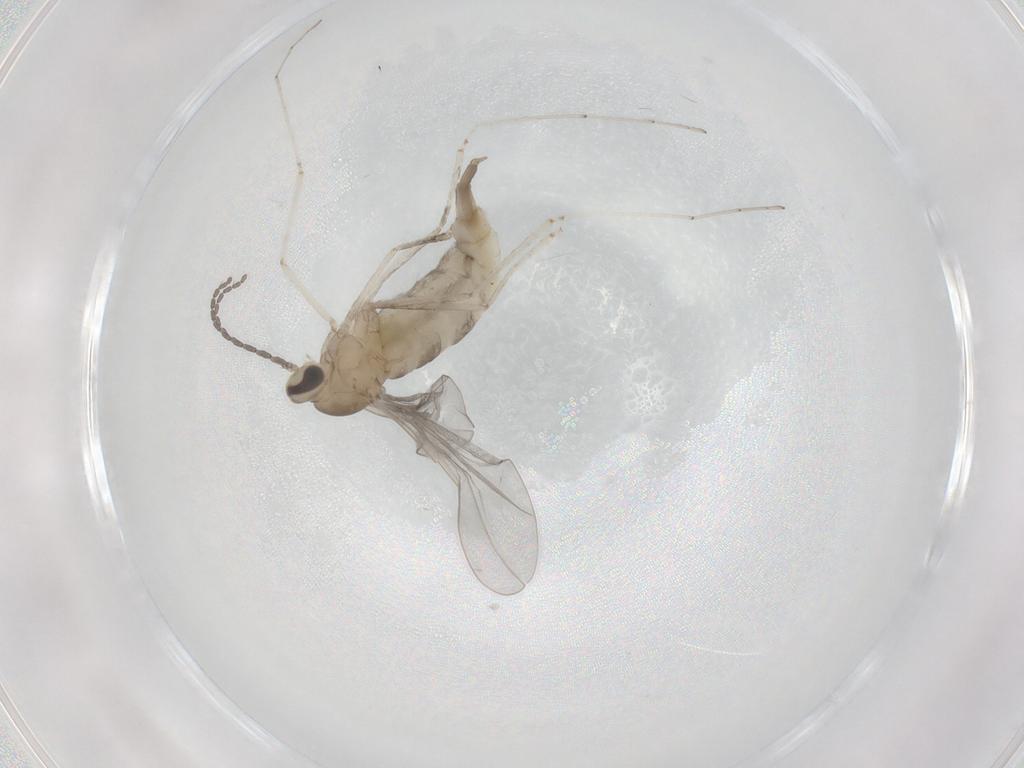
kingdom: Animalia
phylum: Arthropoda
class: Insecta
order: Diptera
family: Cecidomyiidae
